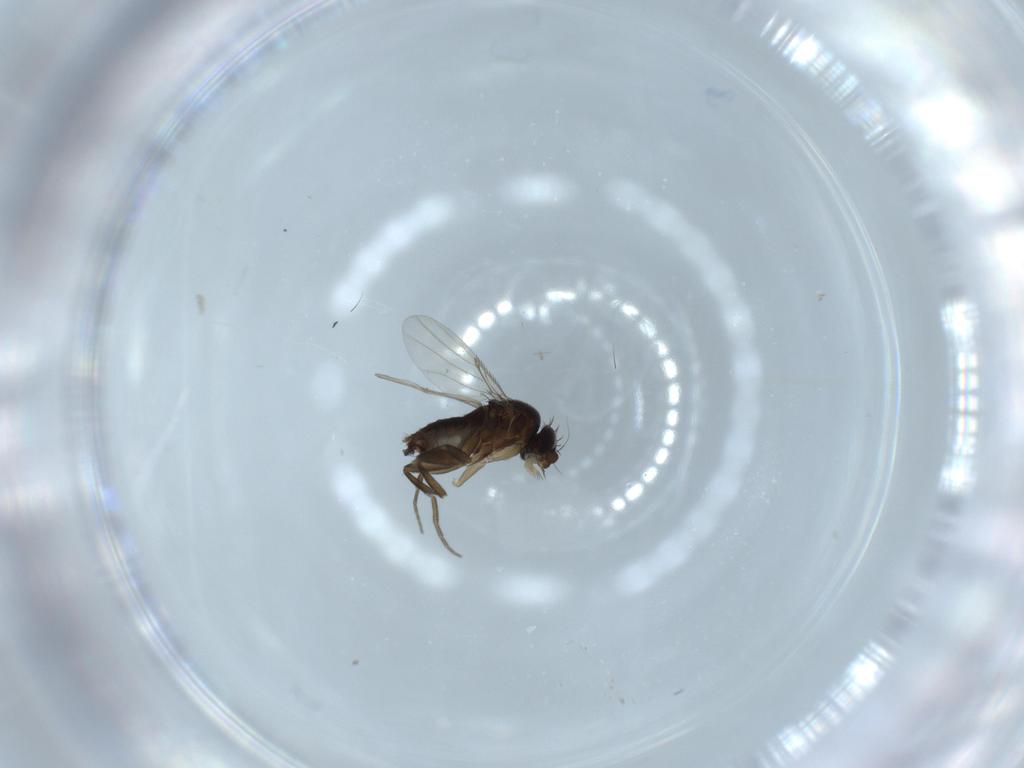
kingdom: Animalia
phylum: Arthropoda
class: Insecta
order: Diptera
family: Phoridae
